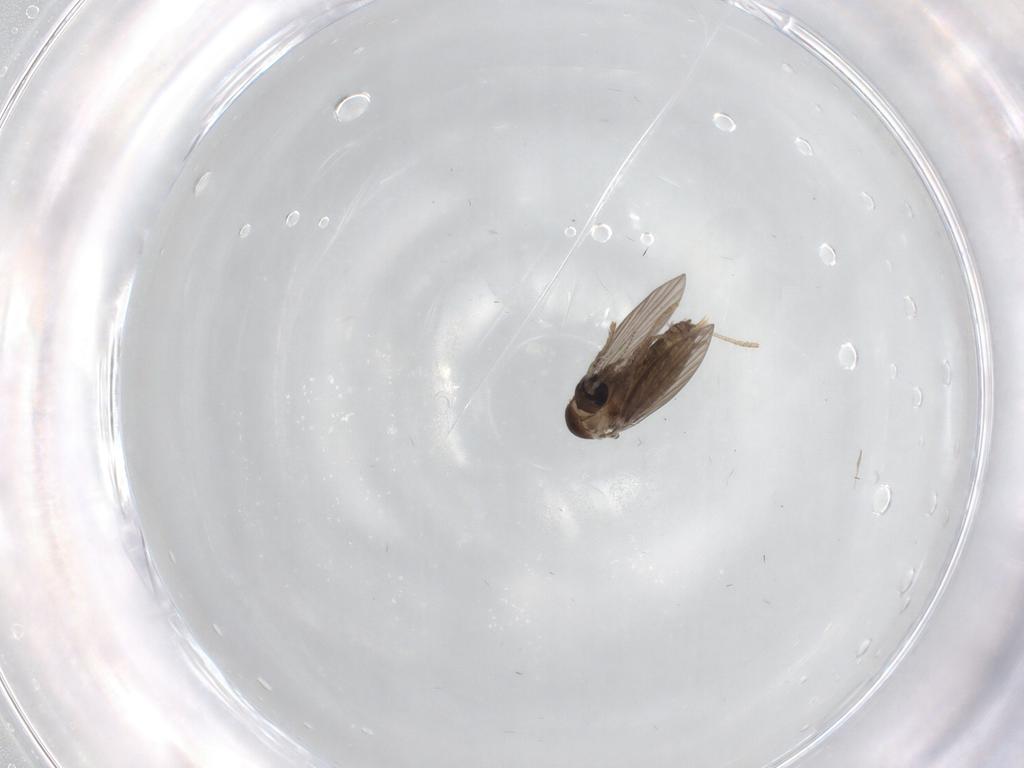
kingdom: Animalia
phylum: Arthropoda
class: Insecta
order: Diptera
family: Psychodidae
